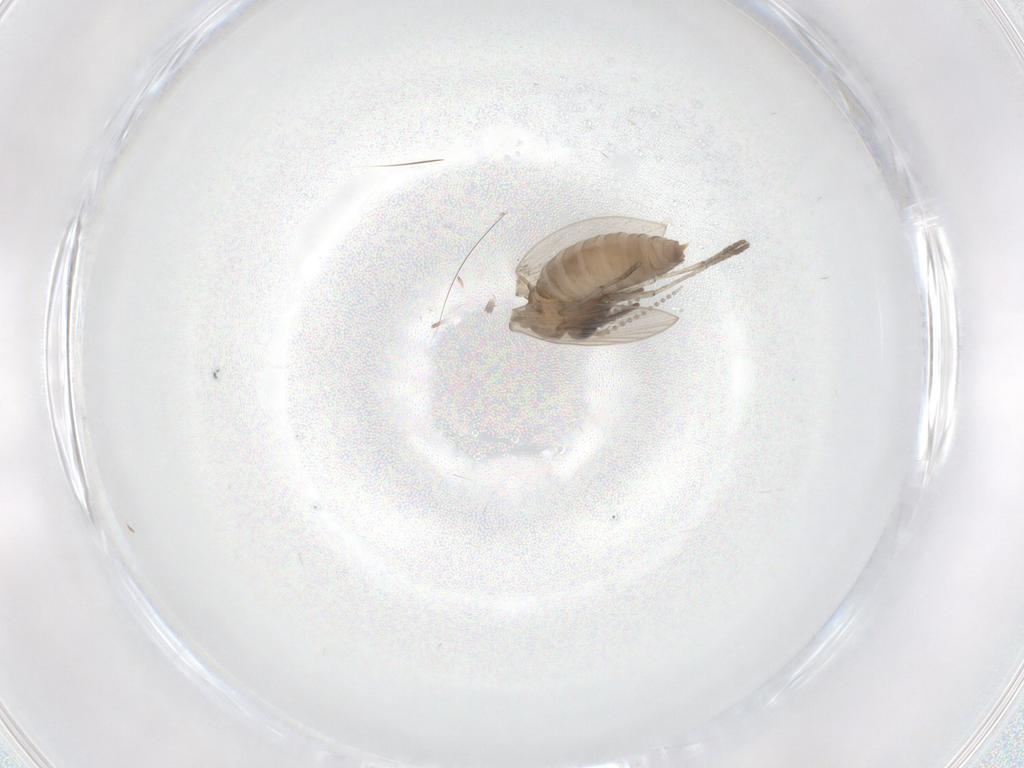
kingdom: Animalia
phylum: Arthropoda
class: Insecta
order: Diptera
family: Psychodidae
